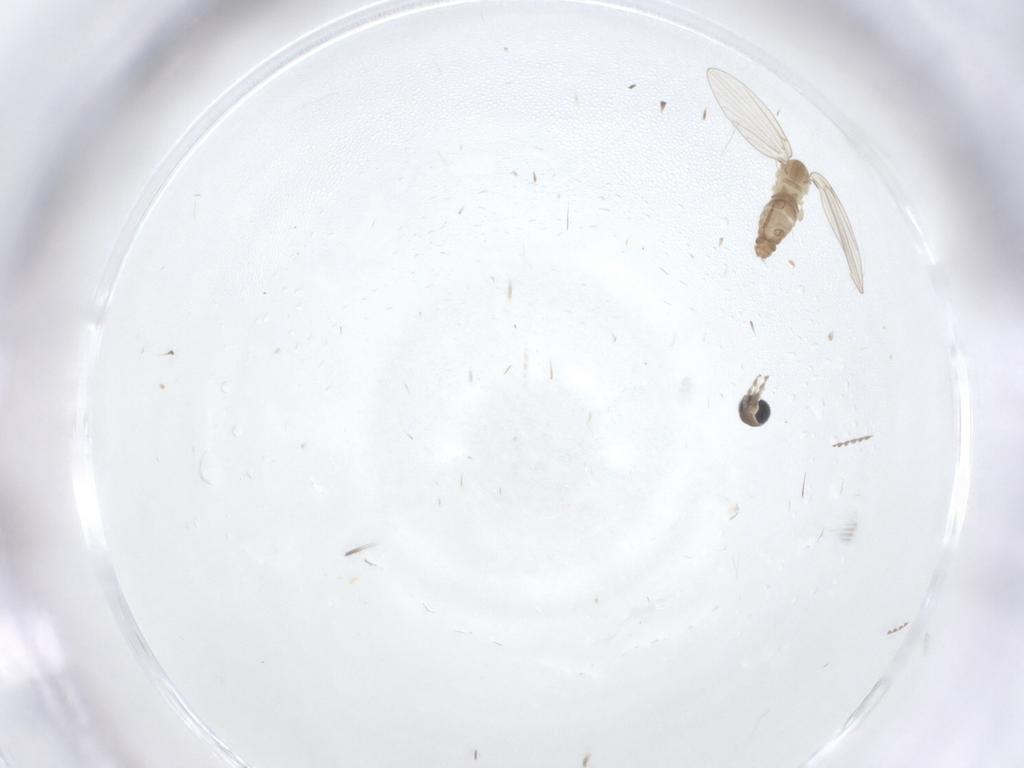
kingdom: Animalia
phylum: Arthropoda
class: Insecta
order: Diptera
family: Psychodidae
